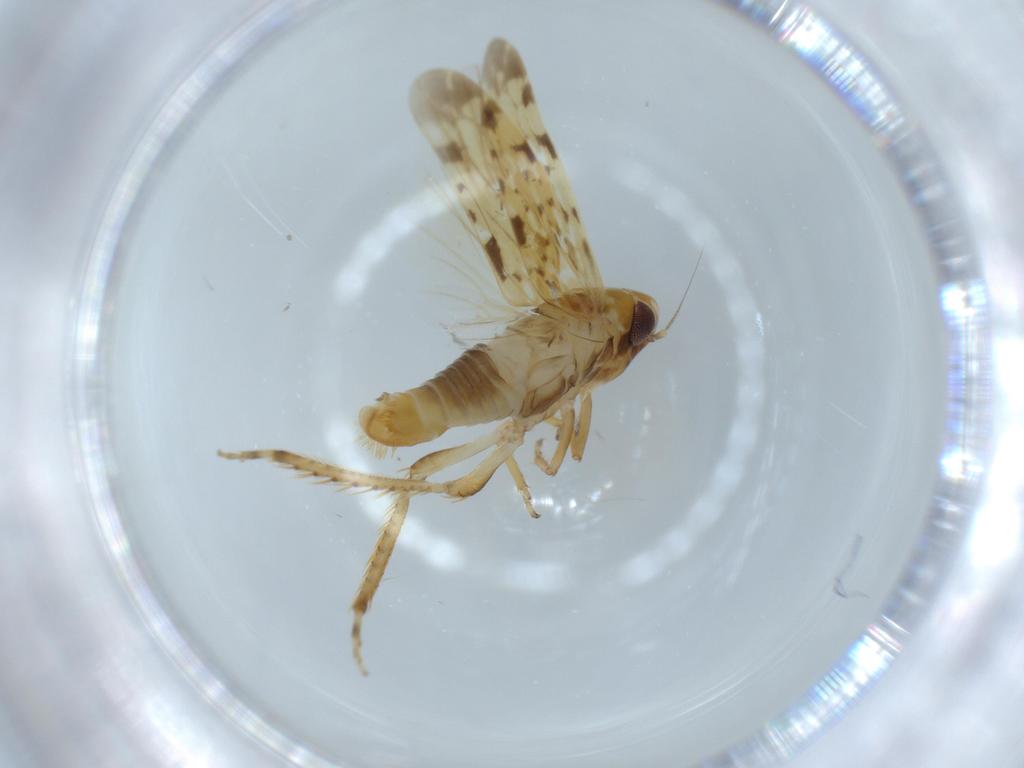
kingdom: Animalia
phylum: Arthropoda
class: Insecta
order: Hemiptera
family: Cicadellidae
